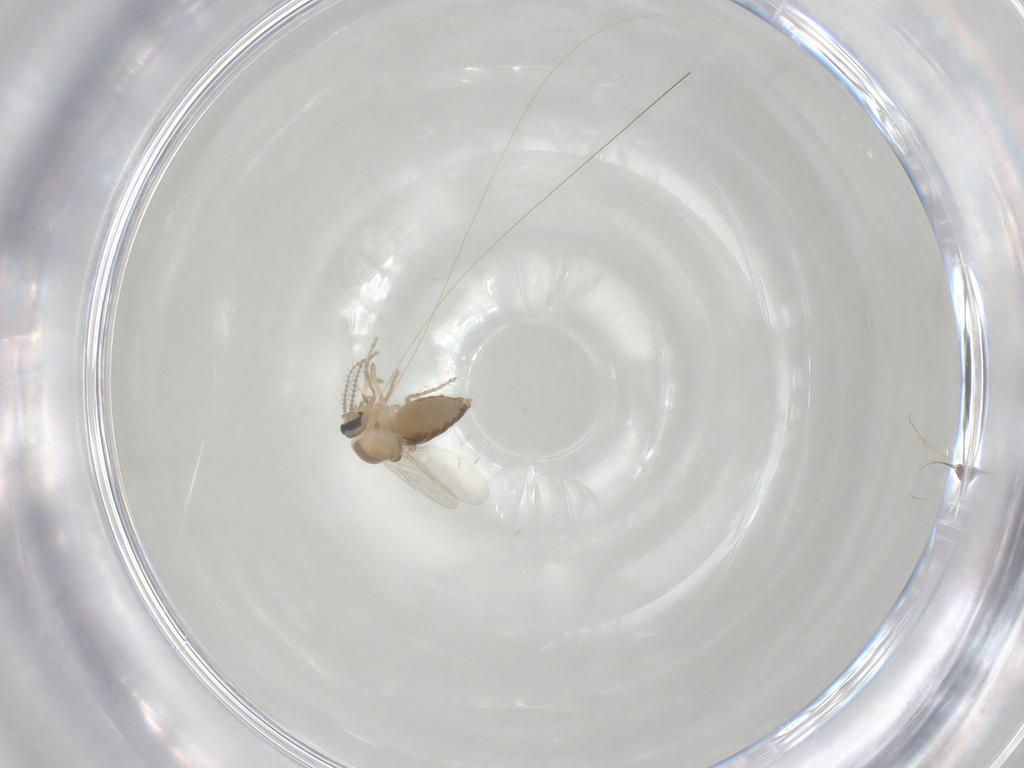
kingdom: Animalia
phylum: Arthropoda
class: Insecta
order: Diptera
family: Ceratopogonidae
